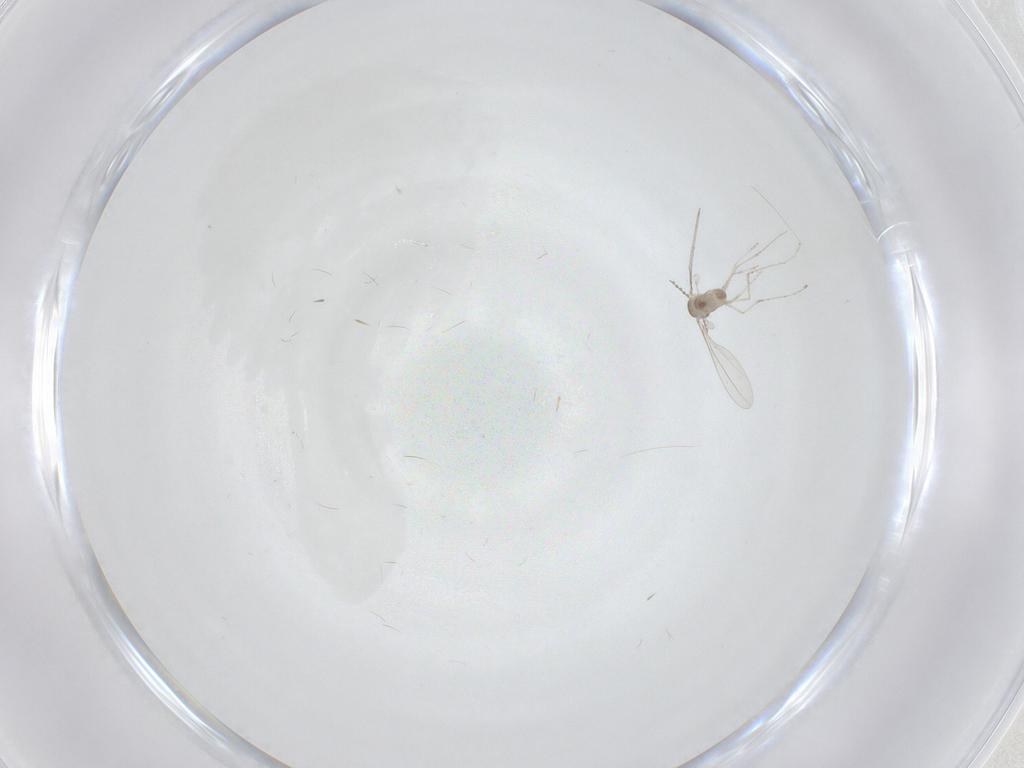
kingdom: Animalia
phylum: Arthropoda
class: Insecta
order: Diptera
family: Cecidomyiidae
